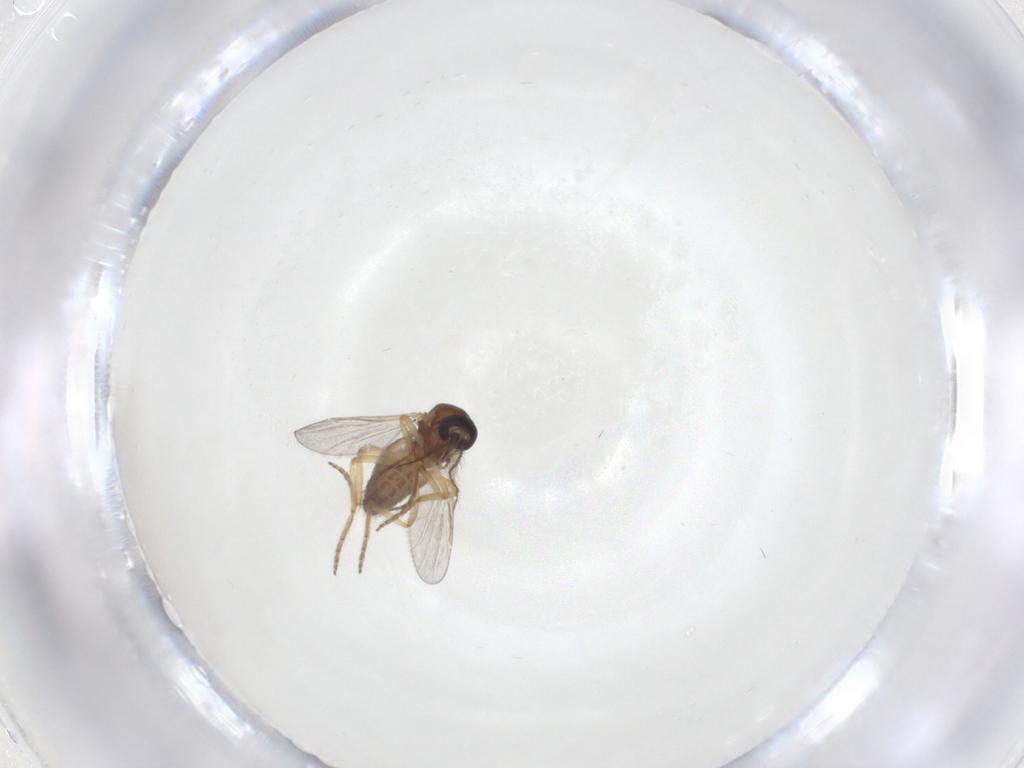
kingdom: Animalia
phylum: Arthropoda
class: Insecta
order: Diptera
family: Ceratopogonidae
